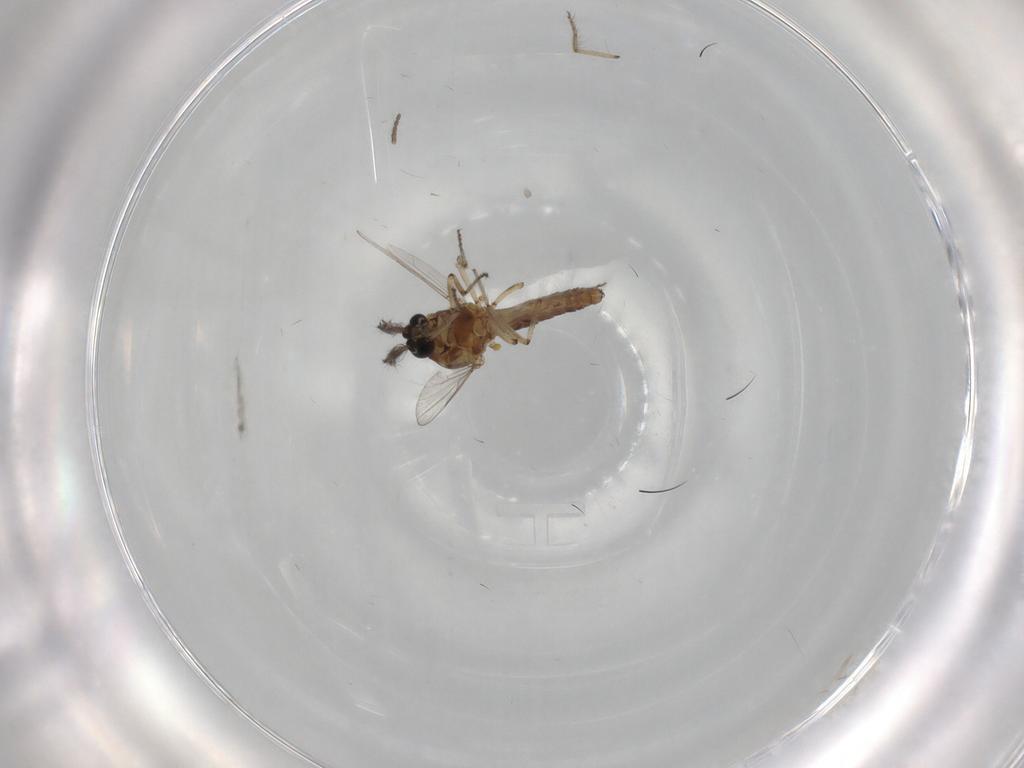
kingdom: Animalia
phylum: Arthropoda
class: Insecta
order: Diptera
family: Ceratopogonidae
